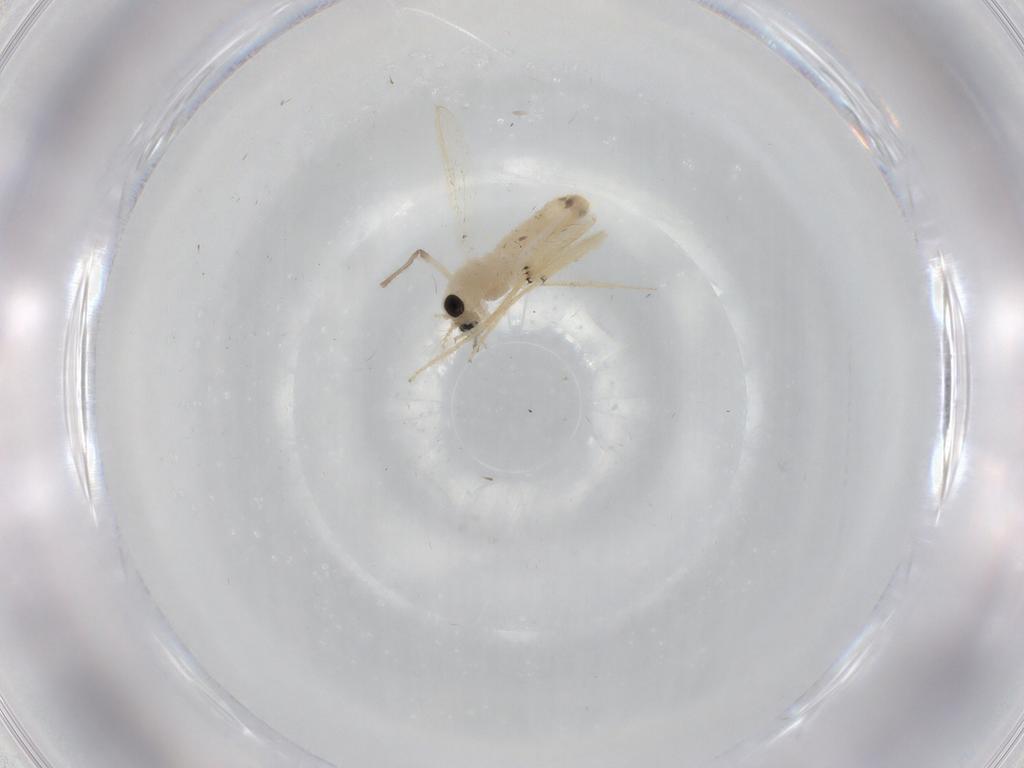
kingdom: Animalia
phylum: Arthropoda
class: Insecta
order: Diptera
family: Chironomidae
